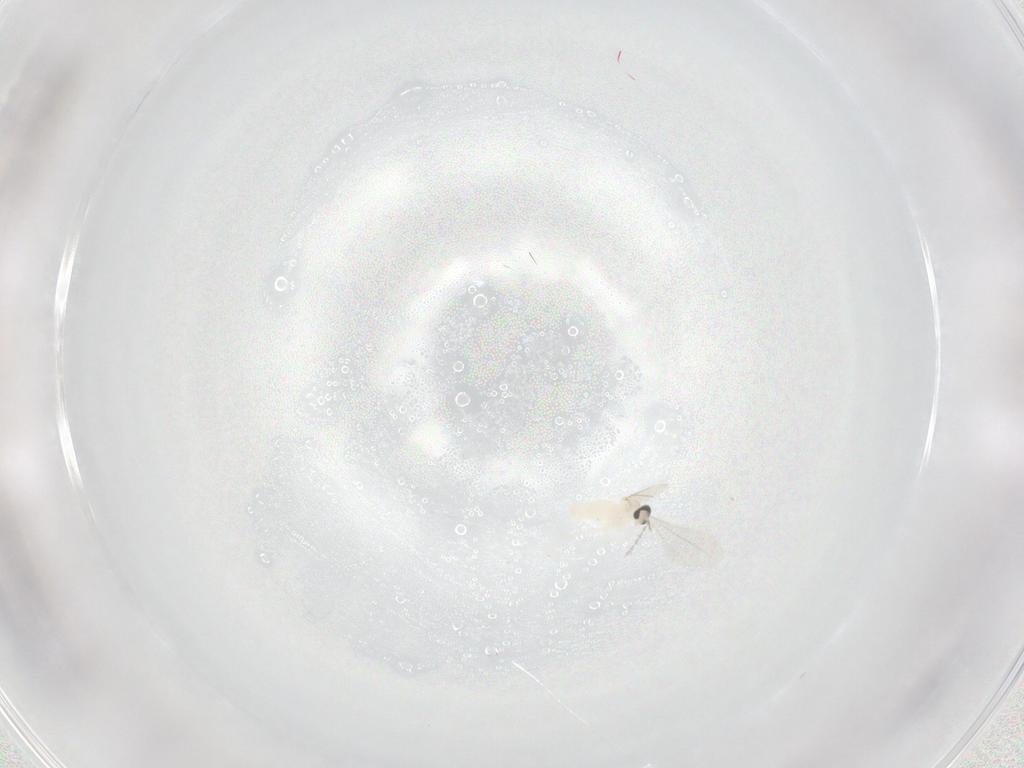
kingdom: Animalia
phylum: Arthropoda
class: Insecta
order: Diptera
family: Cecidomyiidae
